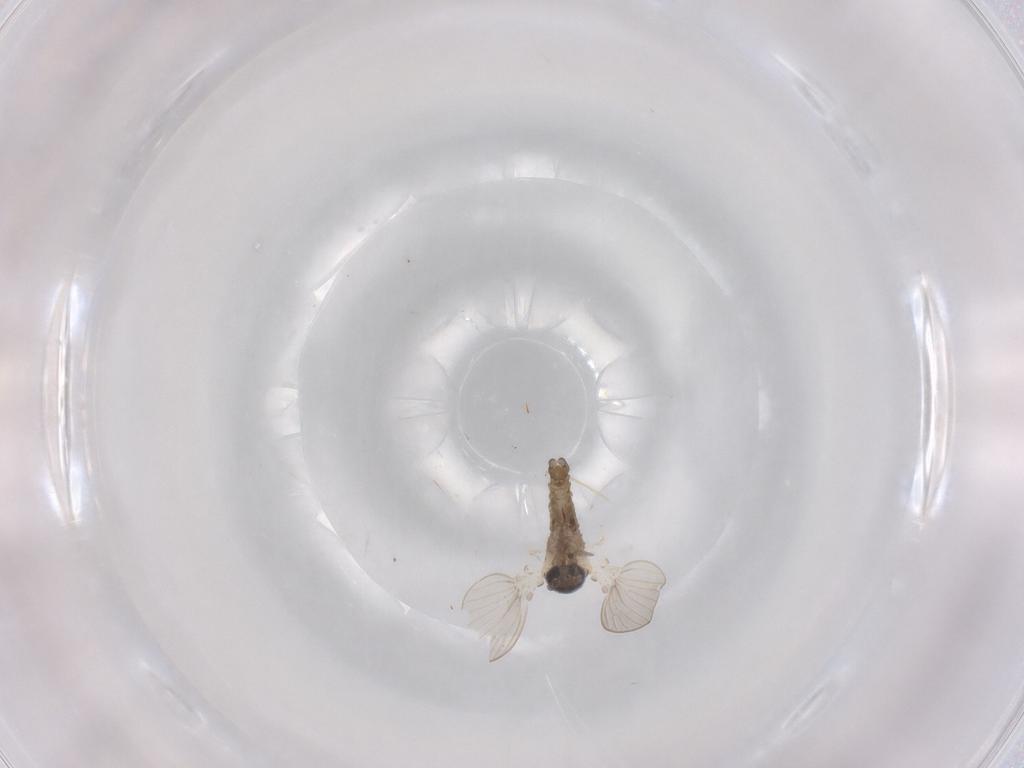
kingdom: Animalia
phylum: Arthropoda
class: Insecta
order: Diptera
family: Psychodidae
